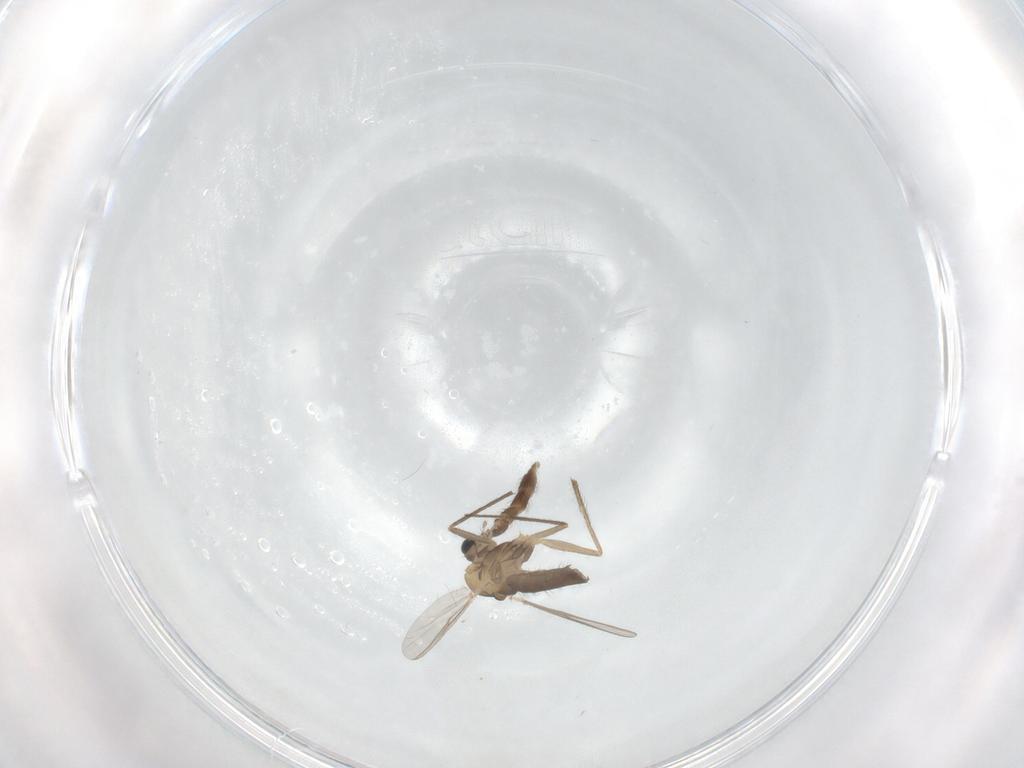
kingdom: Animalia
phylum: Arthropoda
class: Insecta
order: Diptera
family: Chironomidae
